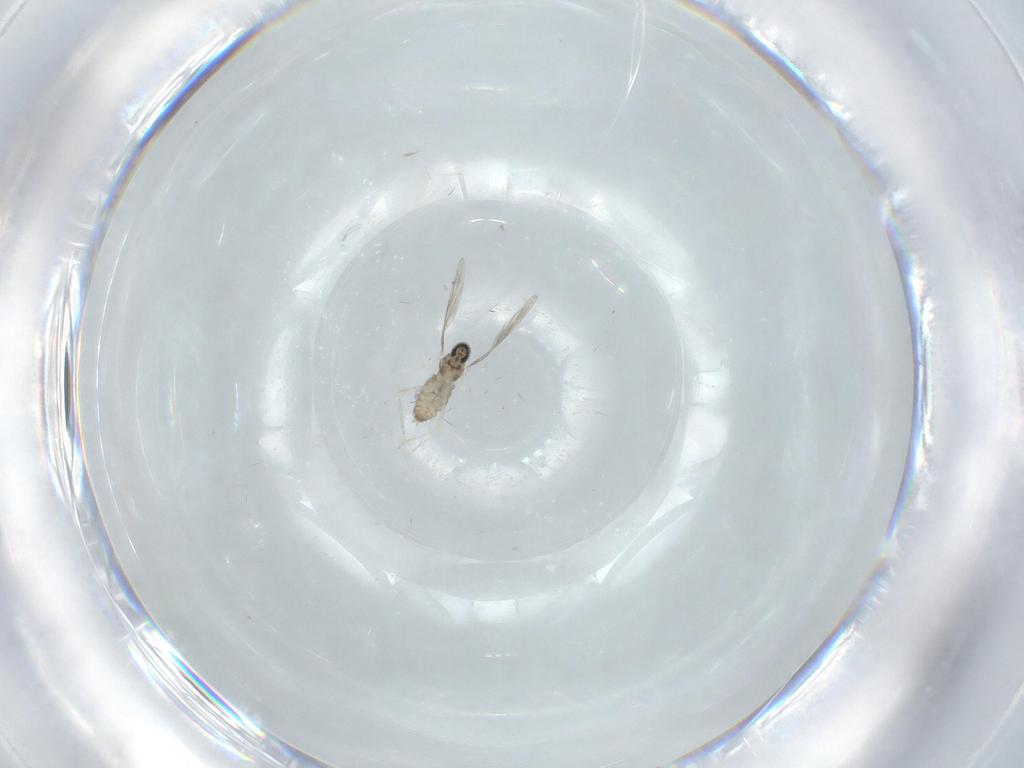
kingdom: Animalia
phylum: Arthropoda
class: Insecta
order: Diptera
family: Cecidomyiidae
